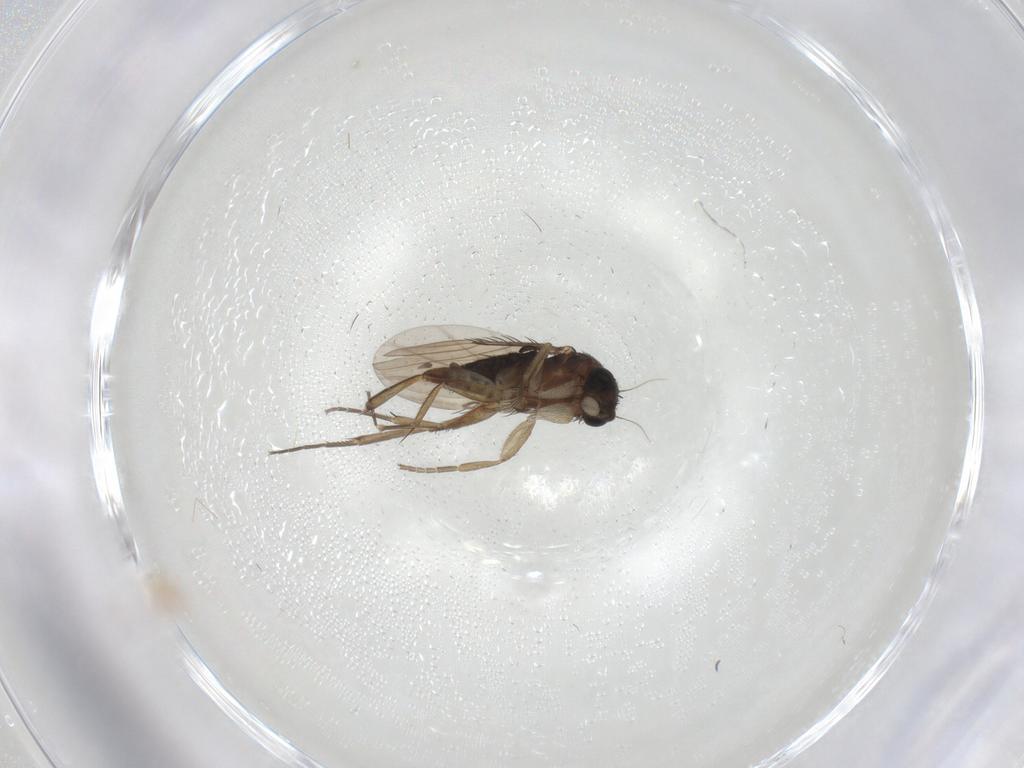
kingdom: Animalia
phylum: Arthropoda
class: Insecta
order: Diptera
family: Phoridae
